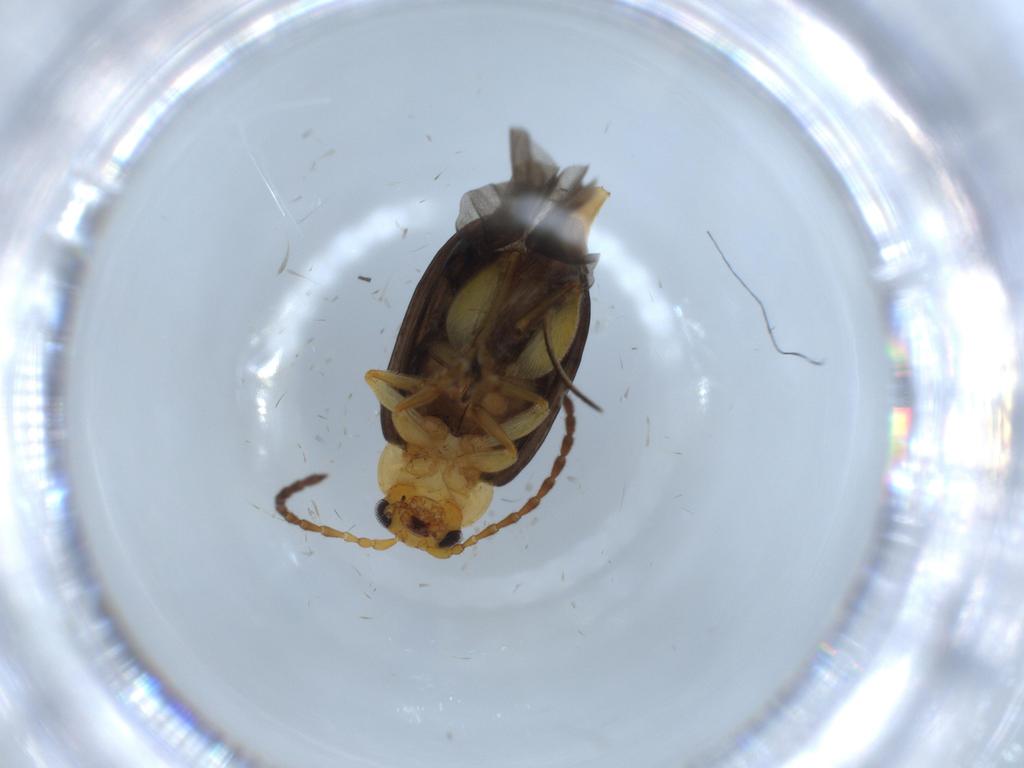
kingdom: Animalia
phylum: Arthropoda
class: Insecta
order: Coleoptera
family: Chrysomelidae
